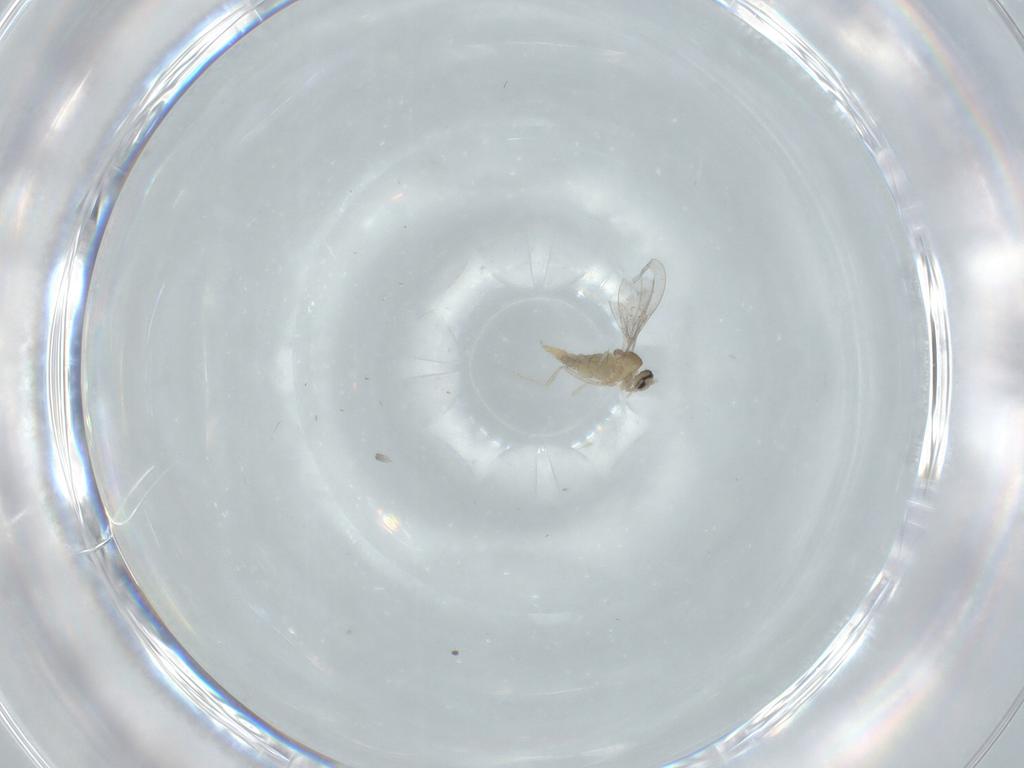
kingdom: Animalia
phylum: Arthropoda
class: Insecta
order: Diptera
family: Cecidomyiidae
